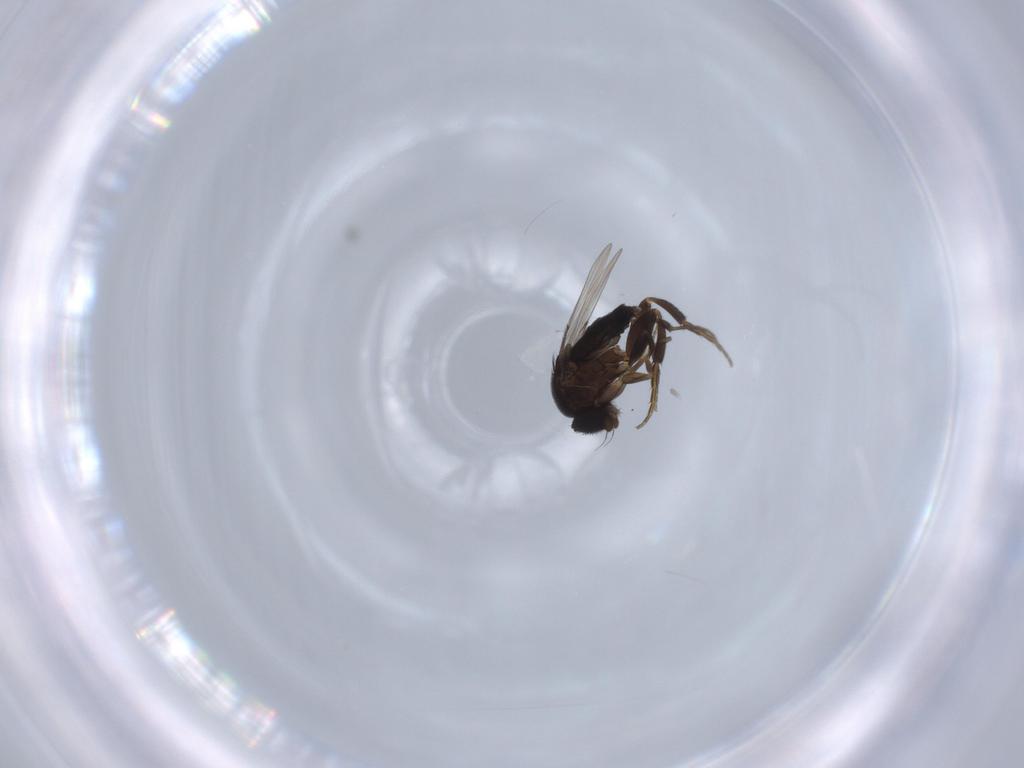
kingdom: Animalia
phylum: Arthropoda
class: Insecta
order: Diptera
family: Phoridae
